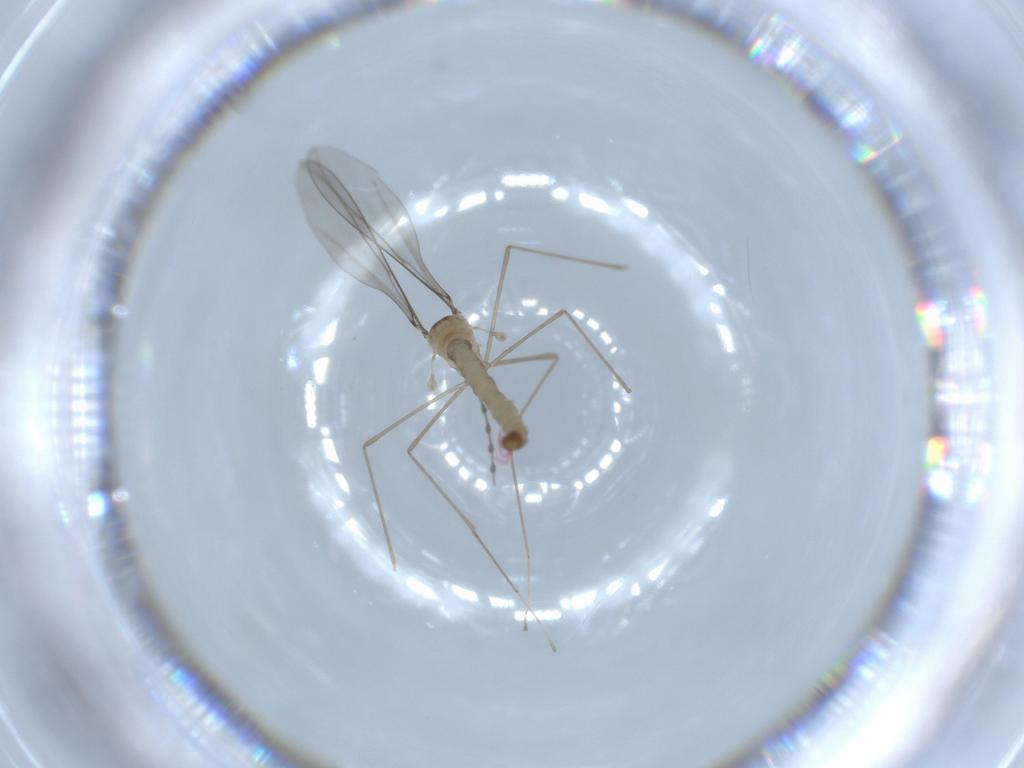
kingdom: Animalia
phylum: Arthropoda
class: Insecta
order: Diptera
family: Cecidomyiidae
